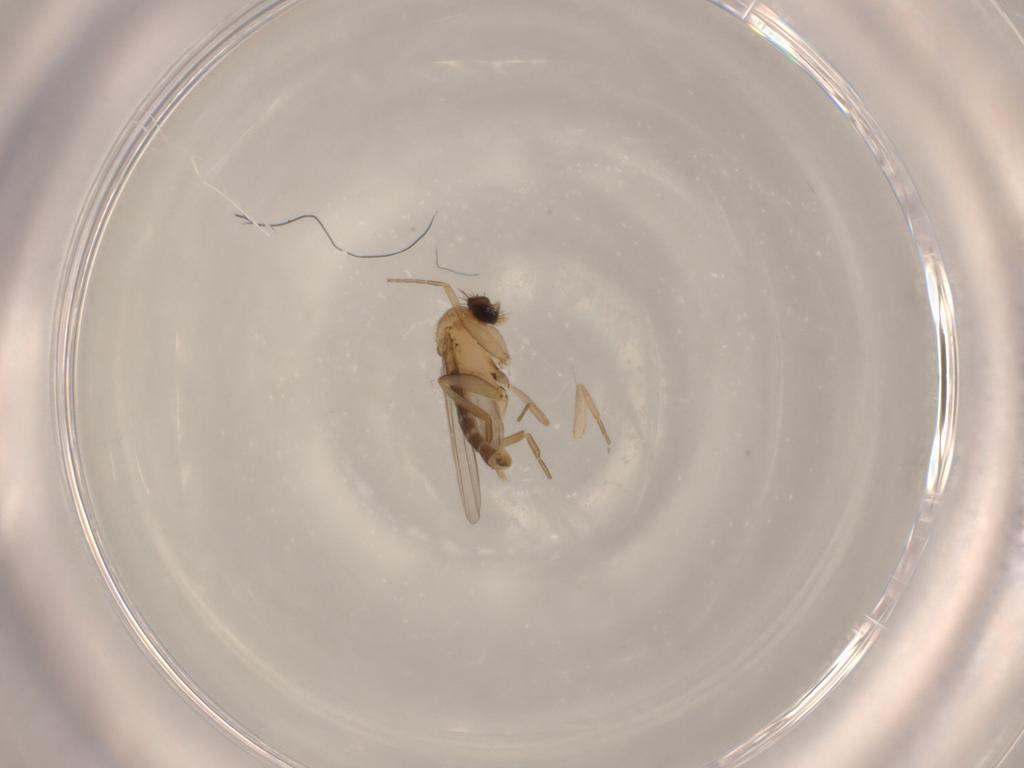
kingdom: Animalia
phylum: Arthropoda
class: Insecta
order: Diptera
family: Phoridae
